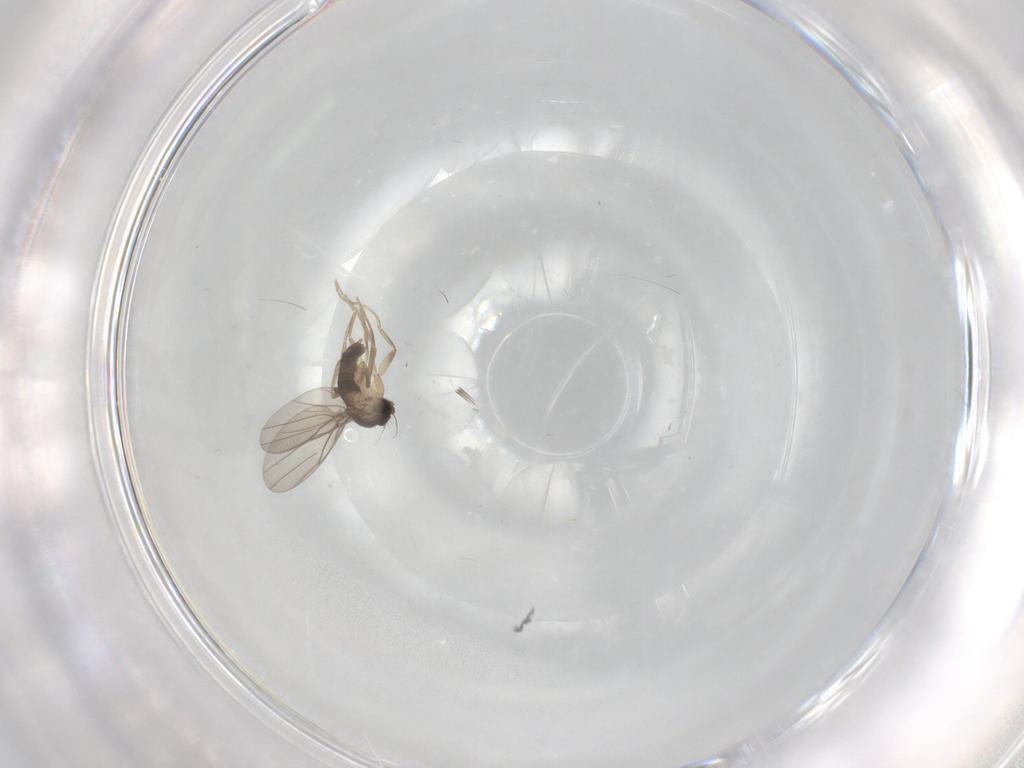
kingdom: Animalia
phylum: Arthropoda
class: Insecta
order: Diptera
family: Phoridae
